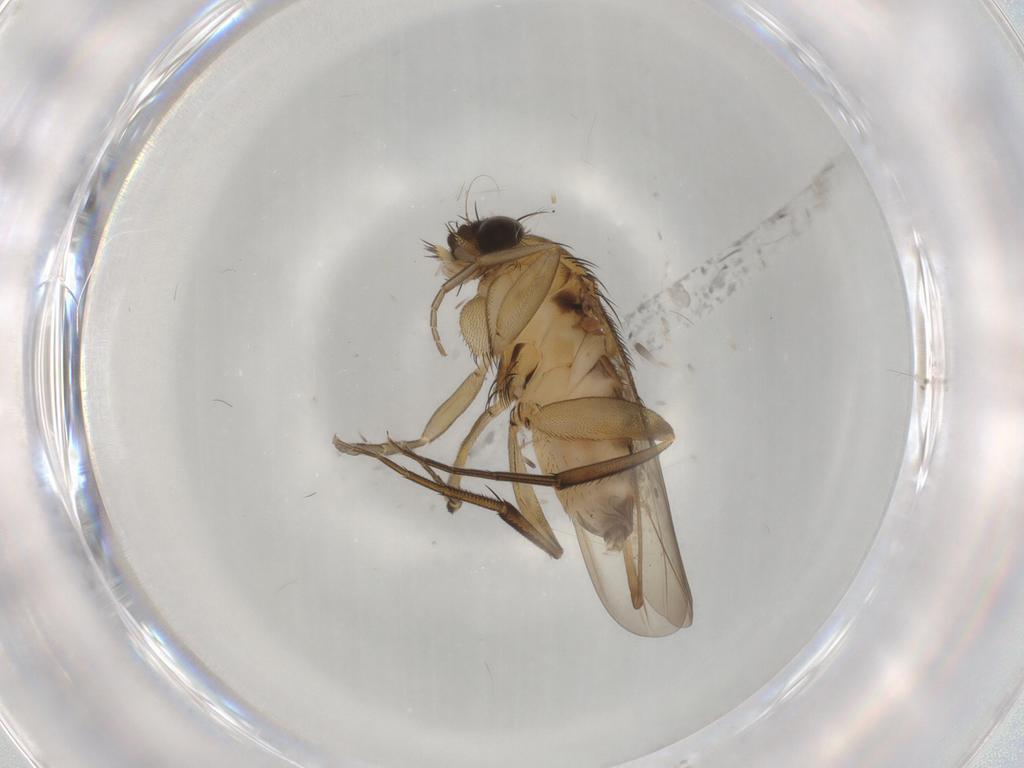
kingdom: Animalia
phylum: Arthropoda
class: Insecta
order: Diptera
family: Phoridae
